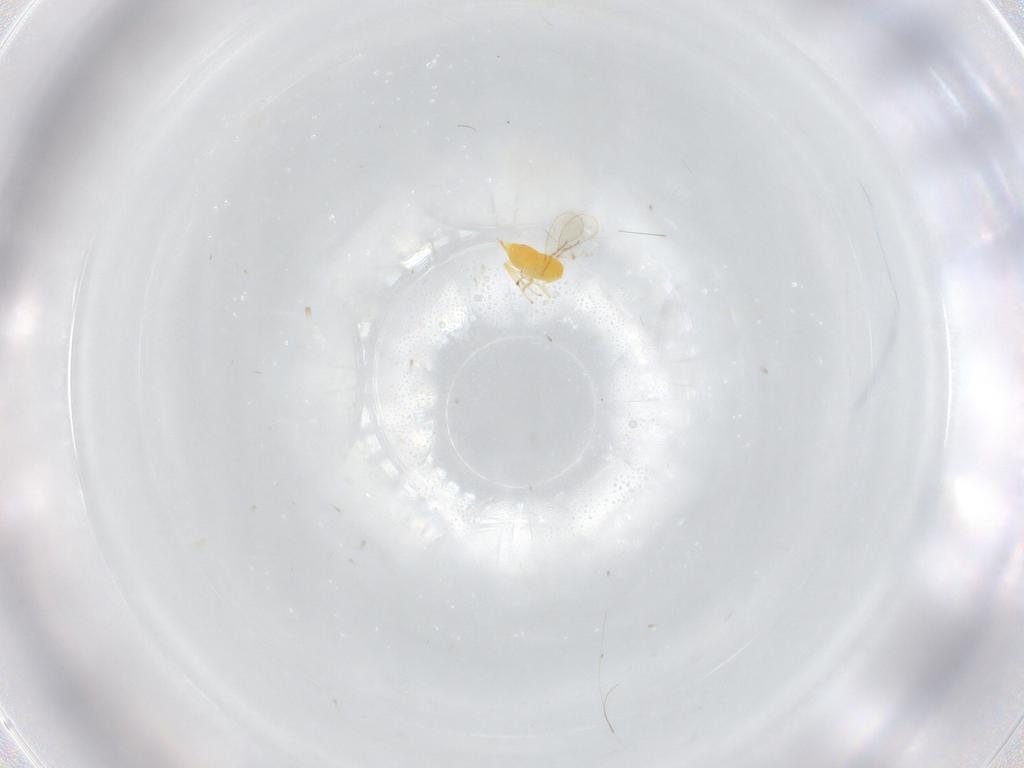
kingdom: Animalia
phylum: Arthropoda
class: Insecta
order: Hymenoptera
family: Aphelinidae
